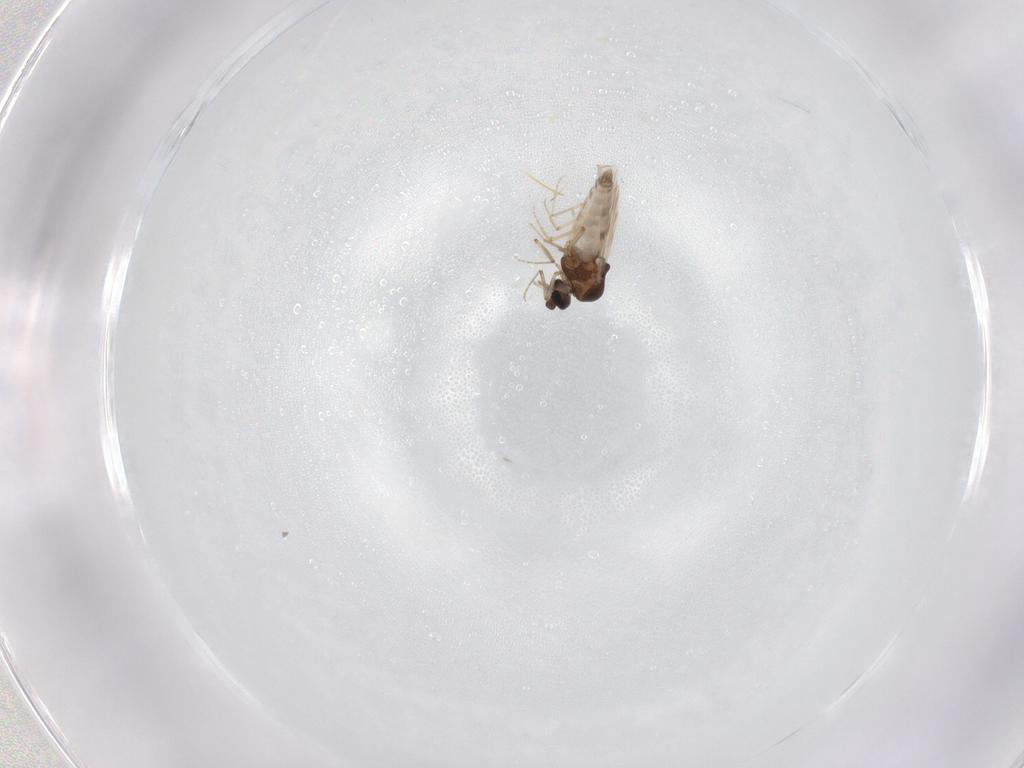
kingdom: Animalia
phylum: Arthropoda
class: Insecta
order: Diptera
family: Ceratopogonidae
